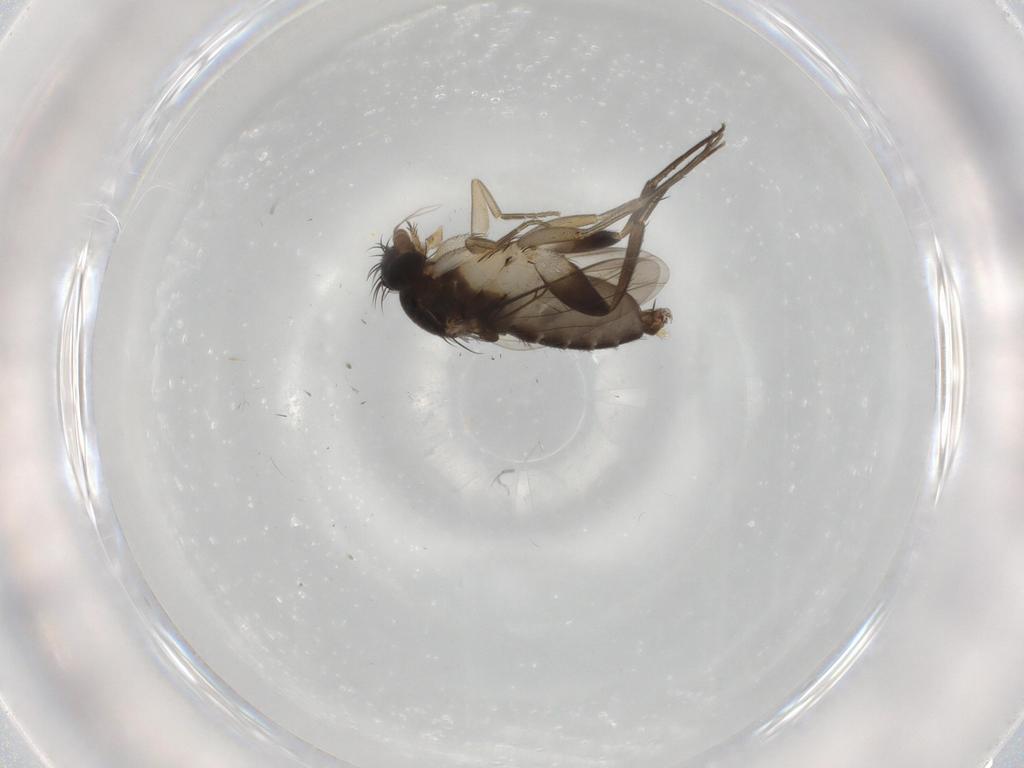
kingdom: Animalia
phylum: Arthropoda
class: Insecta
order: Diptera
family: Phoridae
